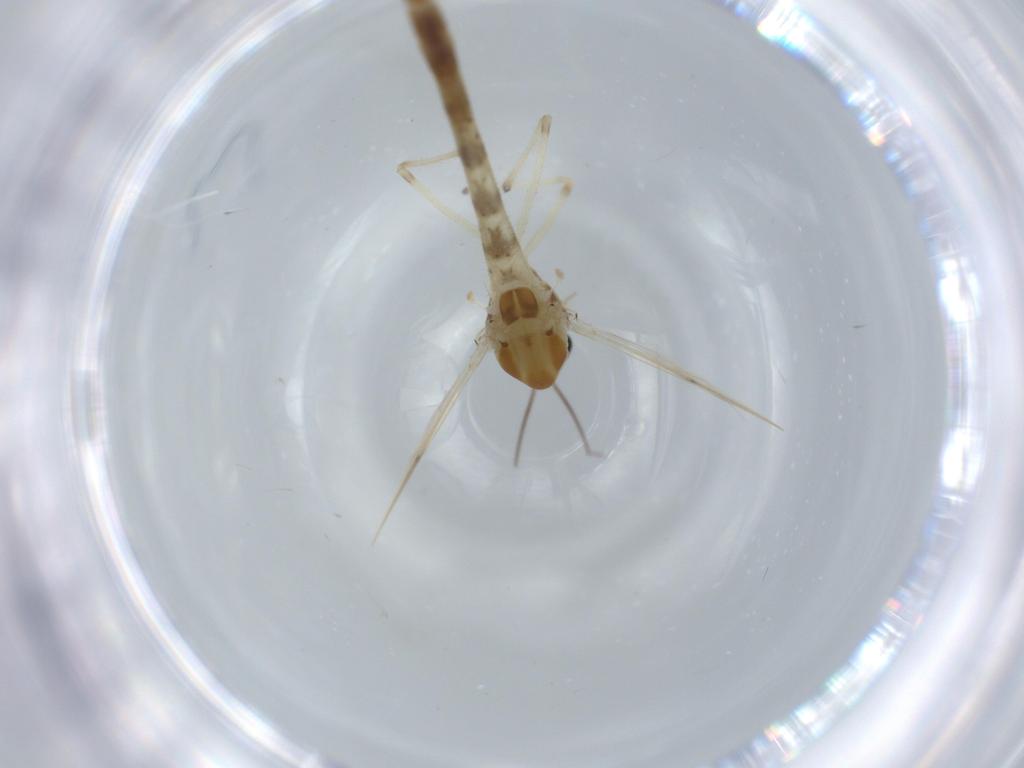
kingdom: Animalia
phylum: Arthropoda
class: Insecta
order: Diptera
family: Chironomidae
